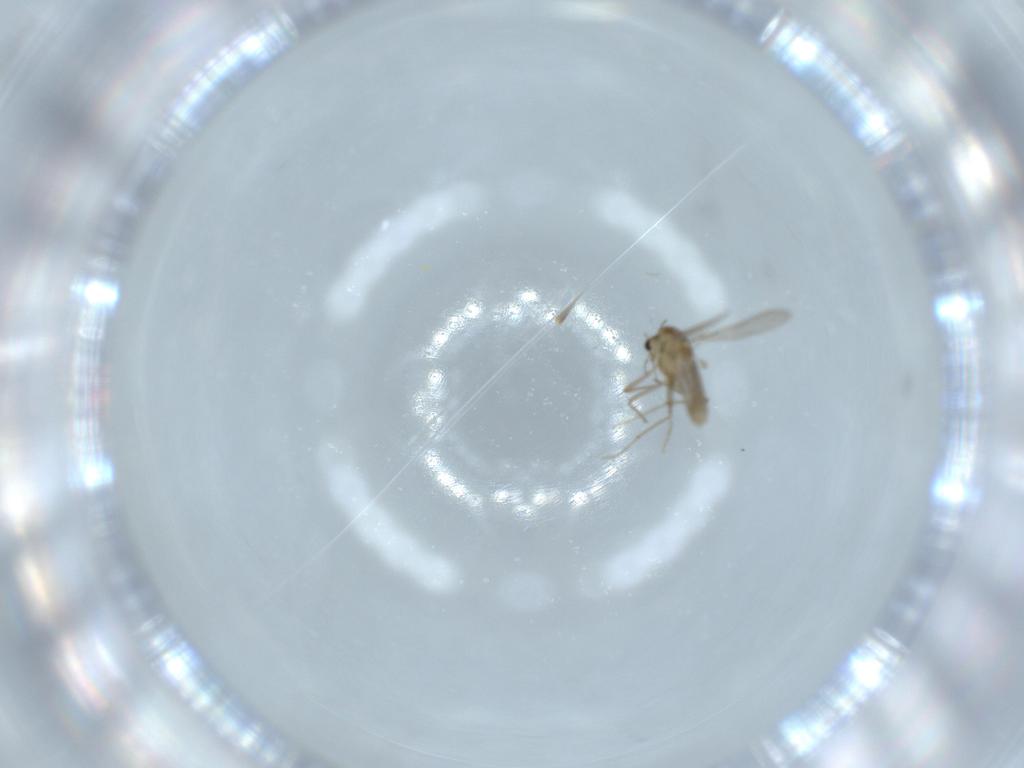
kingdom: Animalia
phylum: Arthropoda
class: Insecta
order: Diptera
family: Chironomidae
